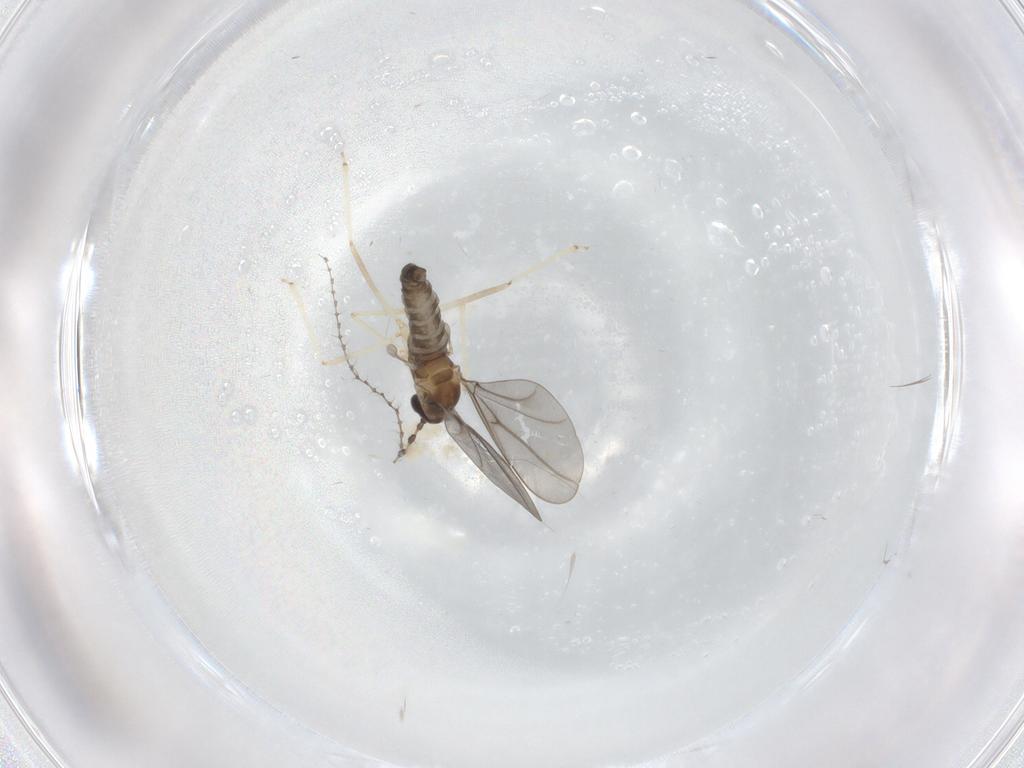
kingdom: Animalia
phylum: Arthropoda
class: Insecta
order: Diptera
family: Cecidomyiidae
